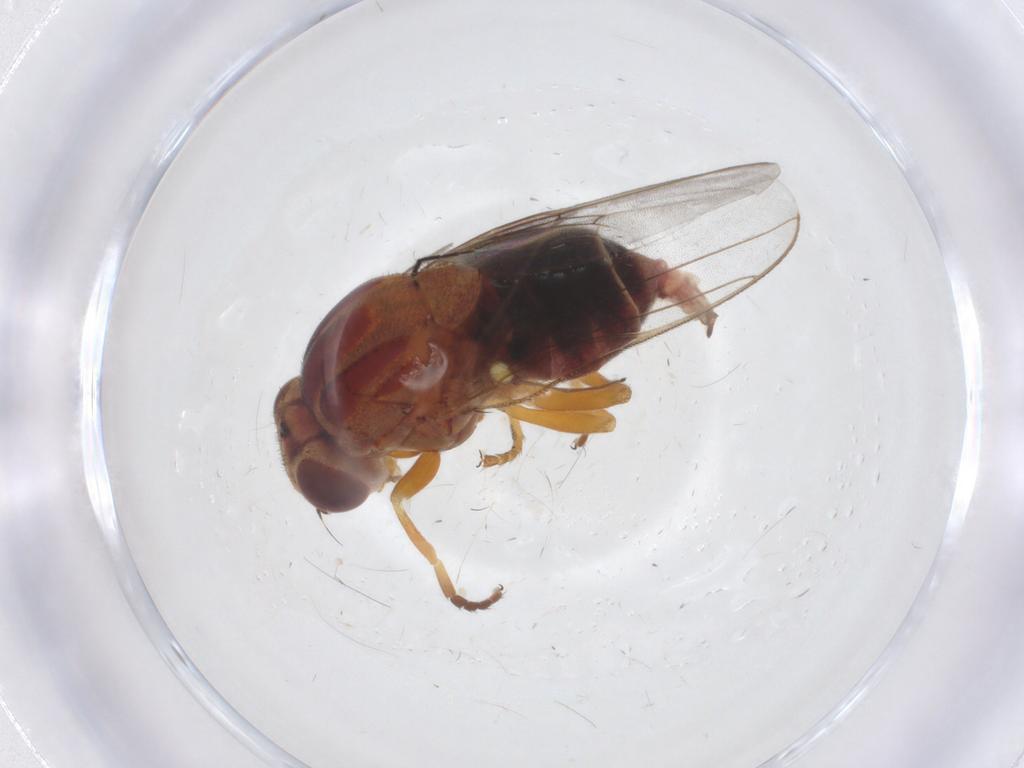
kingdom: Animalia
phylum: Arthropoda
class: Insecta
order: Diptera
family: Chloropidae
